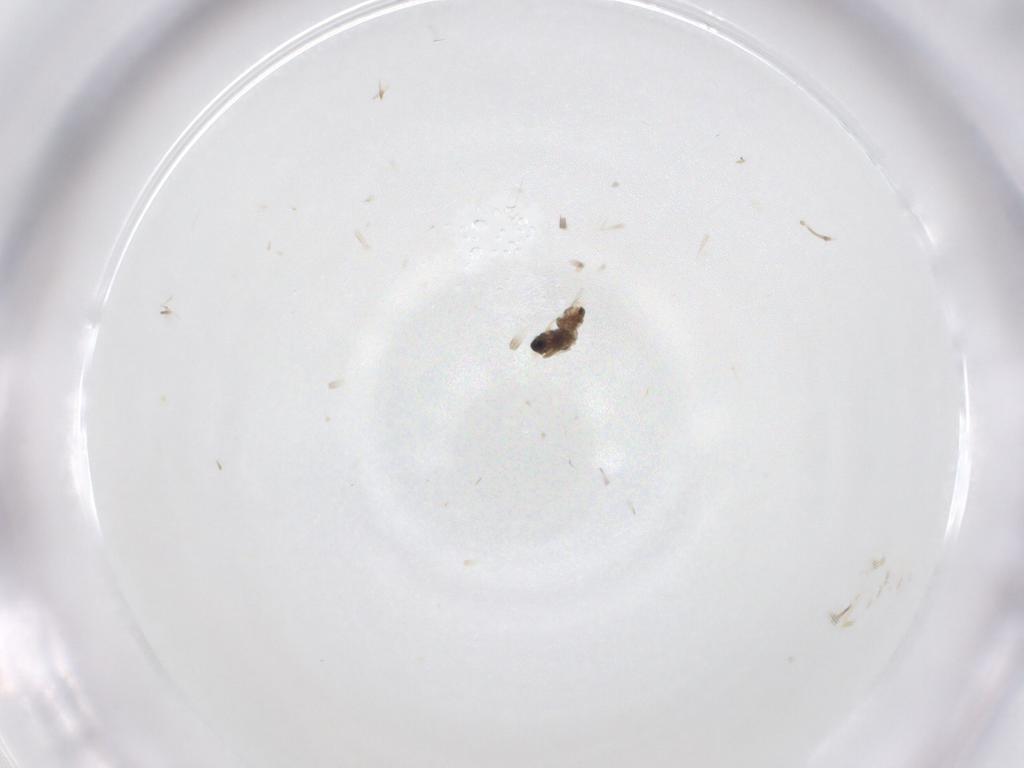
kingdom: Animalia
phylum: Arthropoda
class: Insecta
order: Diptera
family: Cecidomyiidae
